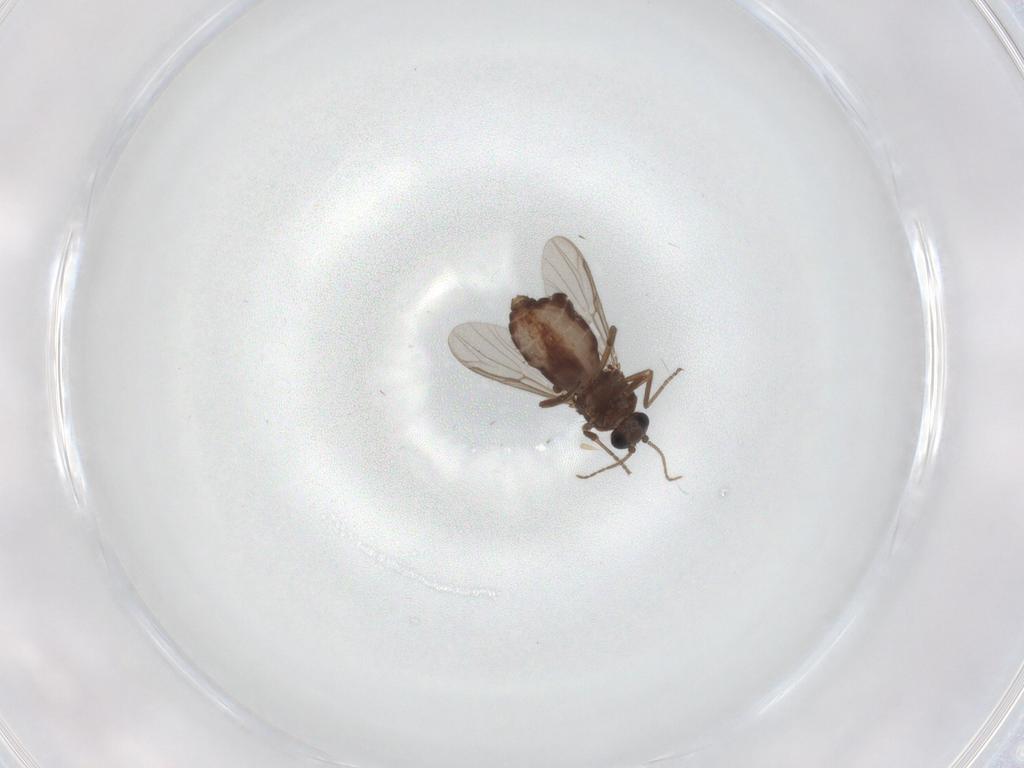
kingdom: Animalia
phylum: Arthropoda
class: Insecta
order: Diptera
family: Ceratopogonidae
